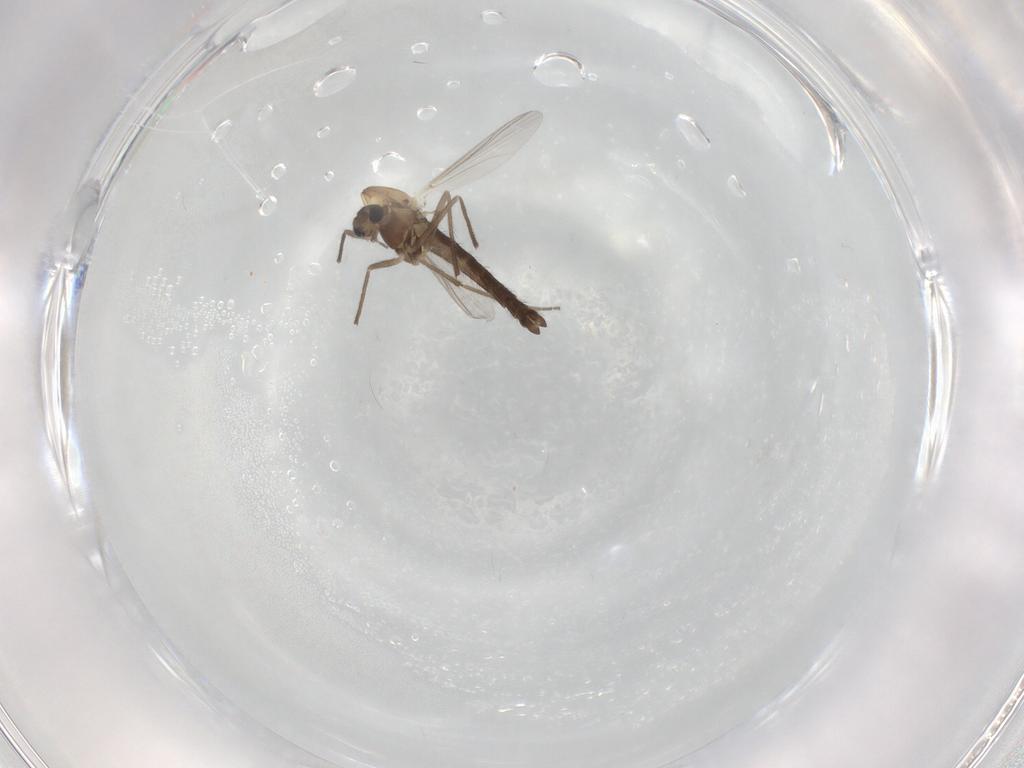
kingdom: Animalia
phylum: Arthropoda
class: Insecta
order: Diptera
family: Chironomidae
